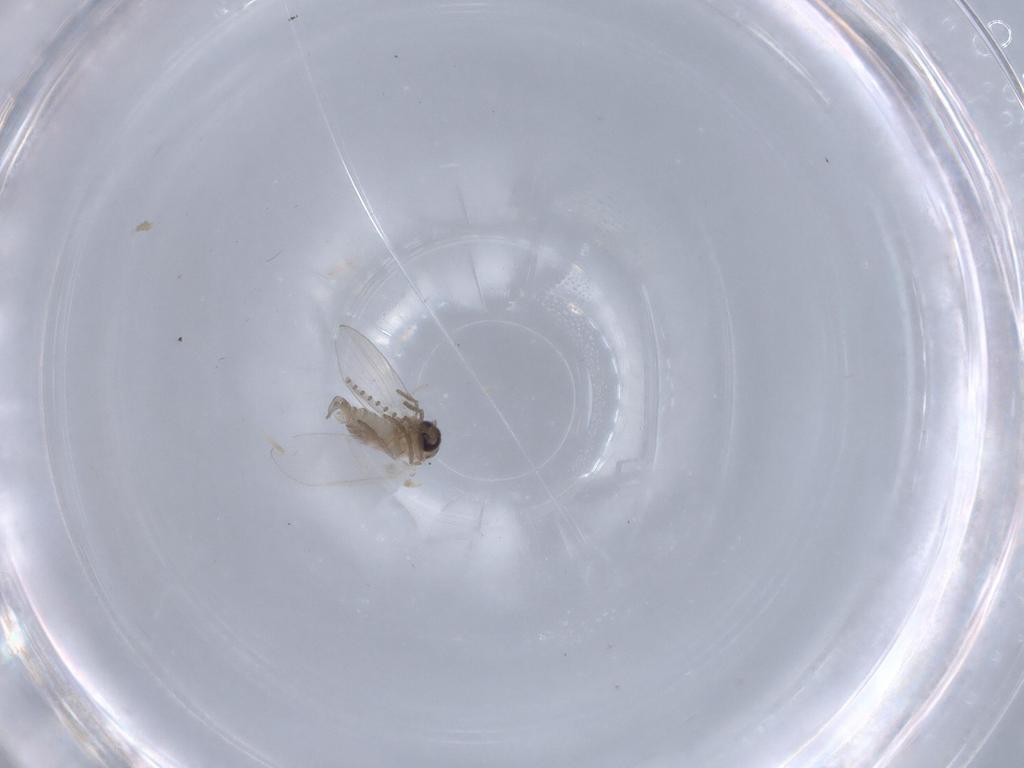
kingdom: Animalia
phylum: Arthropoda
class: Insecta
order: Diptera
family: Psychodidae
